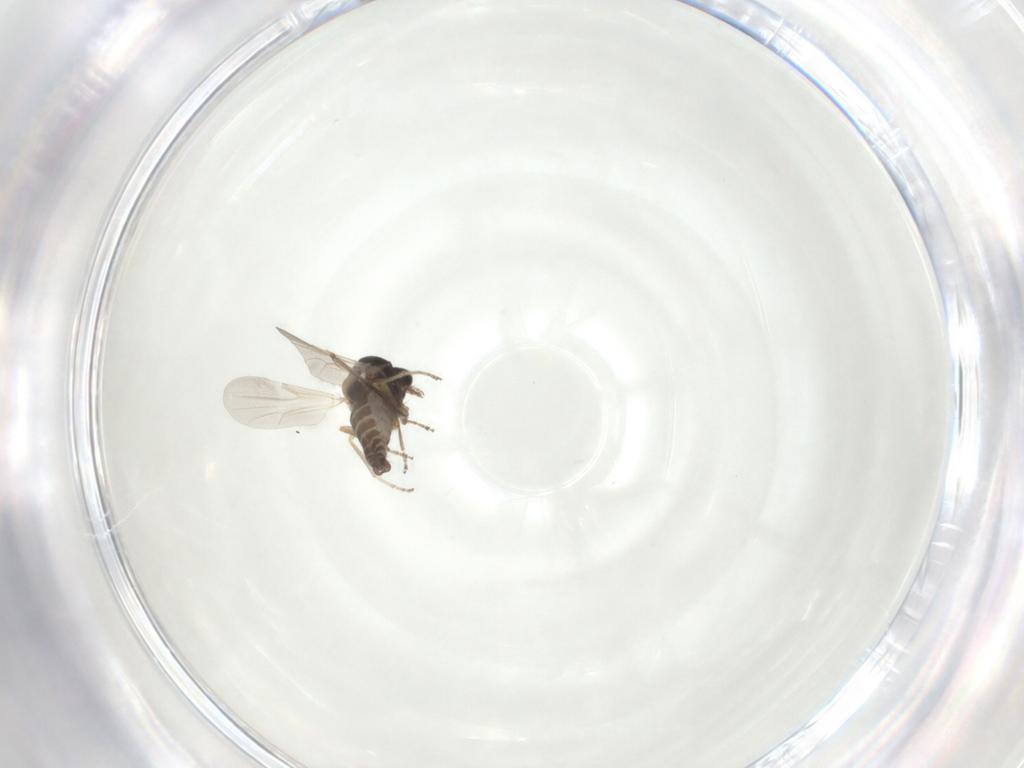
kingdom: Animalia
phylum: Arthropoda
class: Insecta
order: Diptera
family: Ceratopogonidae
